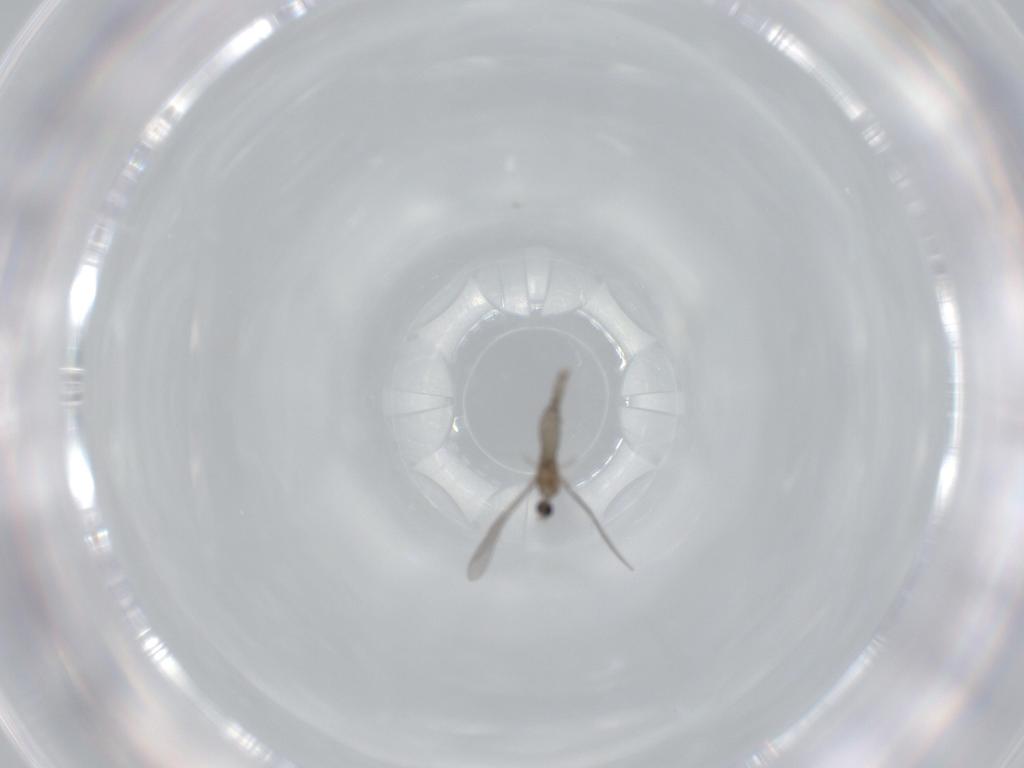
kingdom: Animalia
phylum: Arthropoda
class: Insecta
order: Diptera
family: Cecidomyiidae
